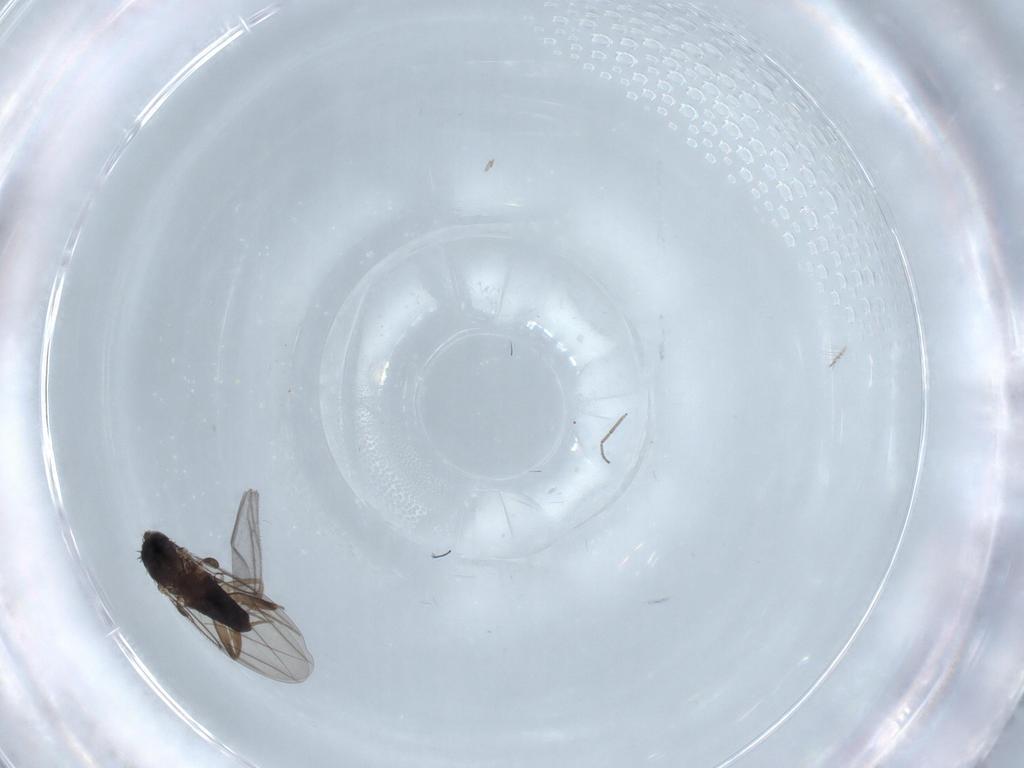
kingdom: Animalia
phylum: Arthropoda
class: Insecta
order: Diptera
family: Phoridae
